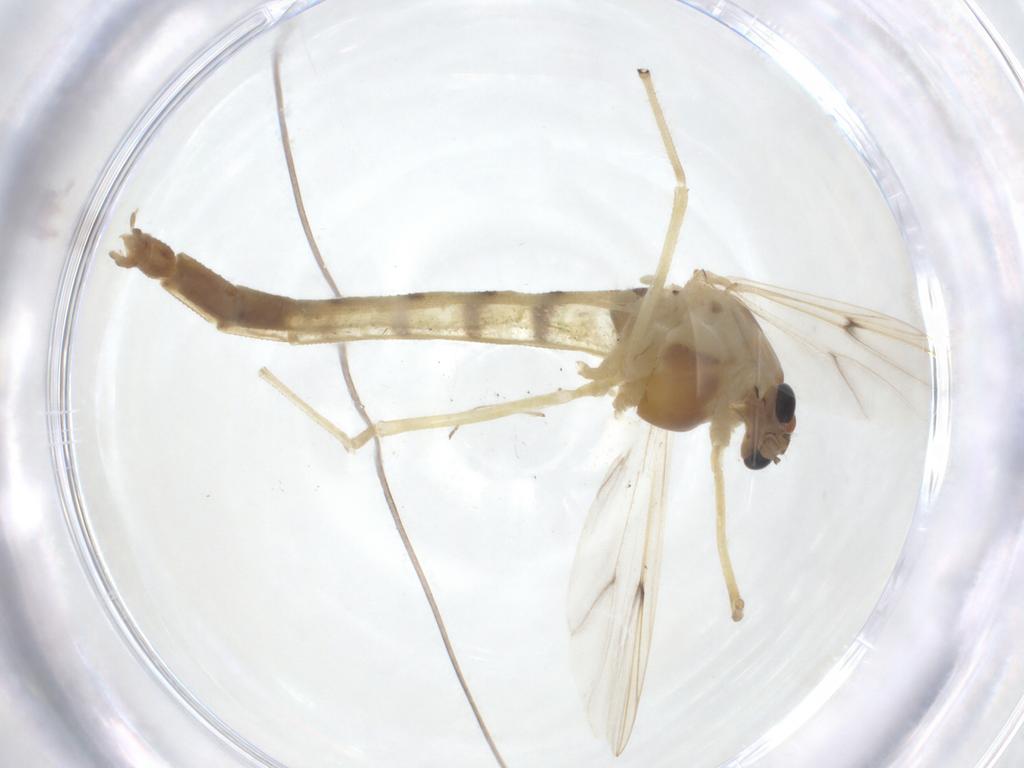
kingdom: Animalia
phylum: Arthropoda
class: Insecta
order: Diptera
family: Chironomidae
